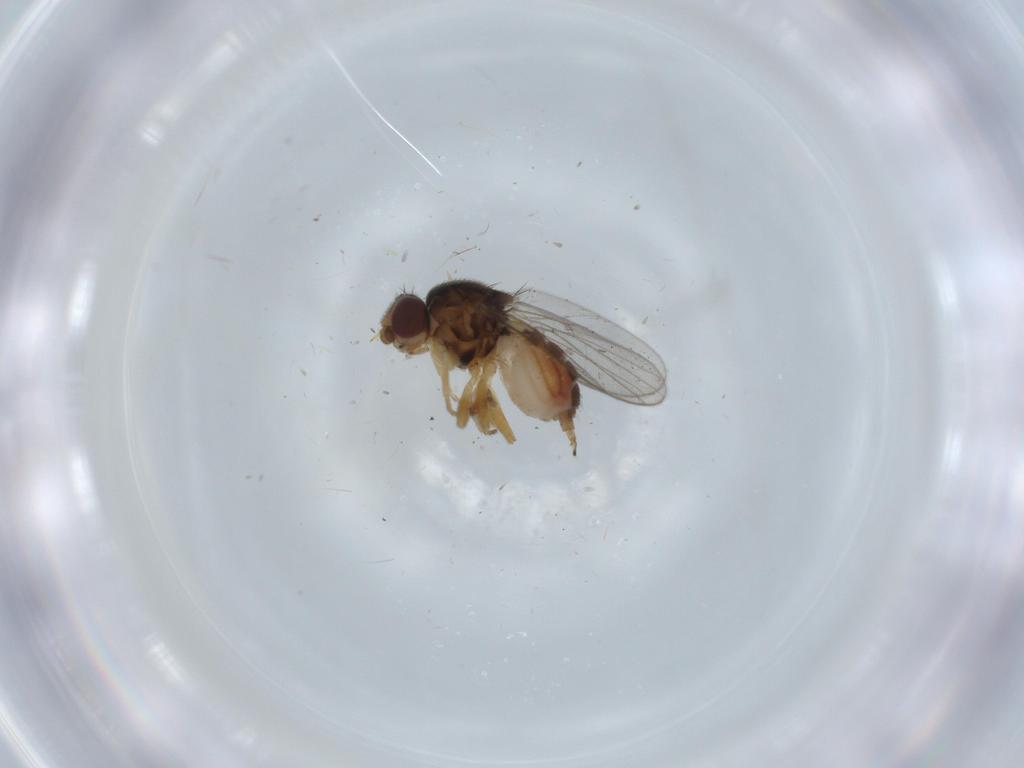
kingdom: Animalia
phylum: Arthropoda
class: Insecta
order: Diptera
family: Chloropidae
